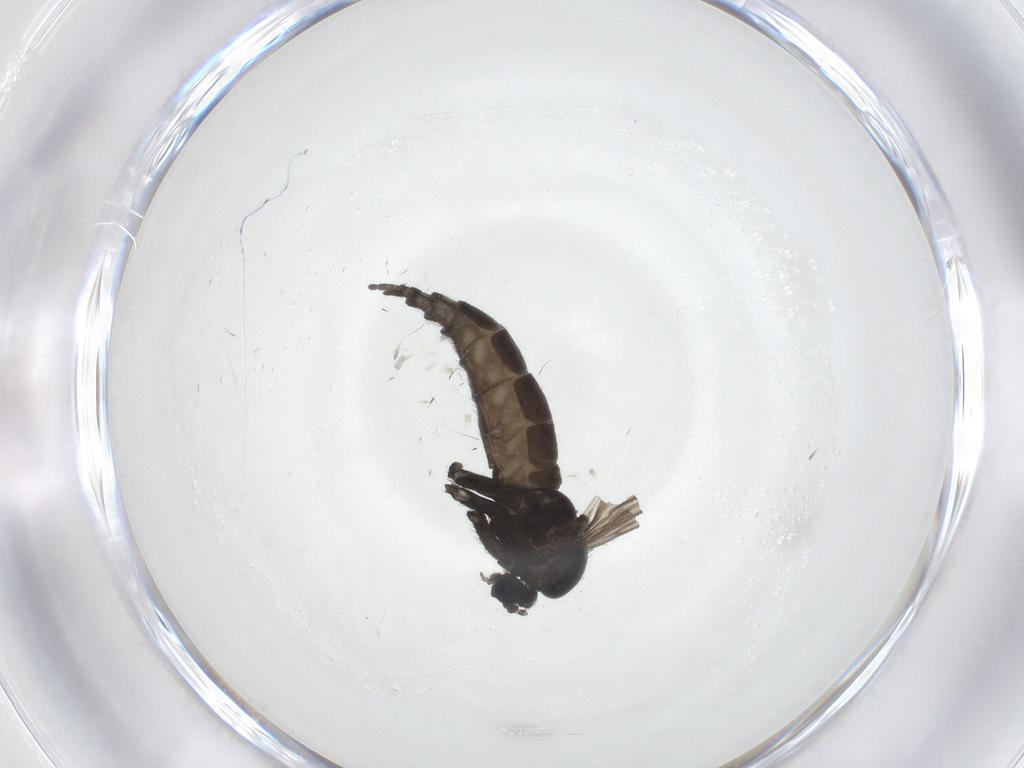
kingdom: Animalia
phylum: Arthropoda
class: Insecta
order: Diptera
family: Sciaridae
